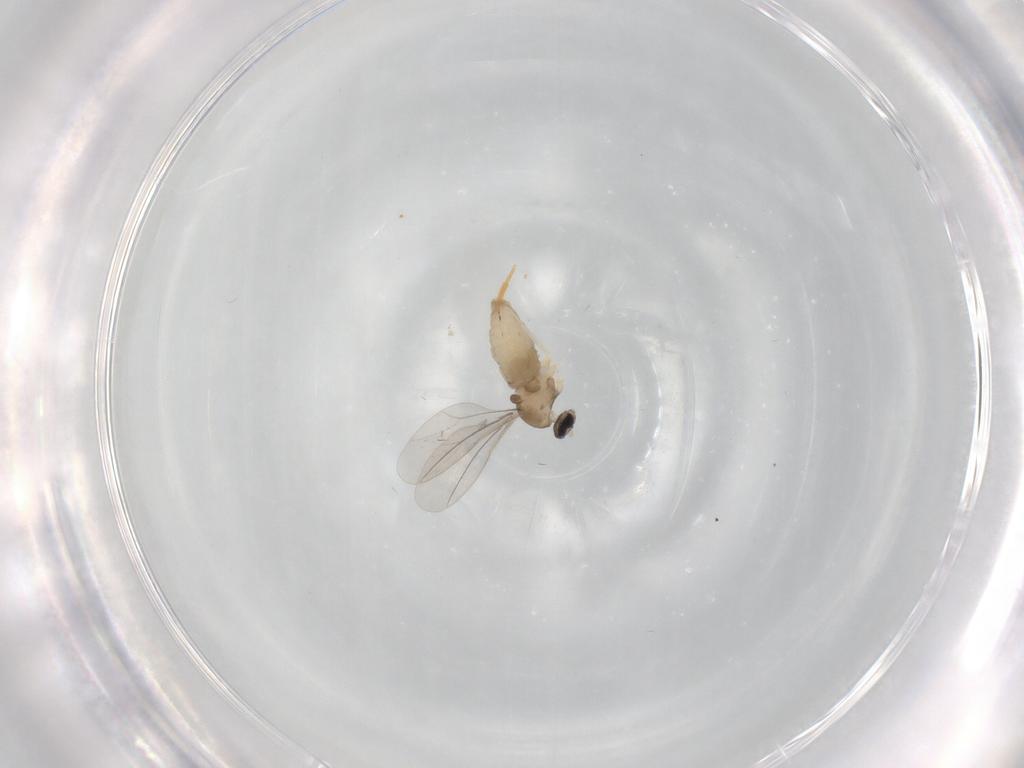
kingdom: Animalia
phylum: Arthropoda
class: Insecta
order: Diptera
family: Cecidomyiidae
